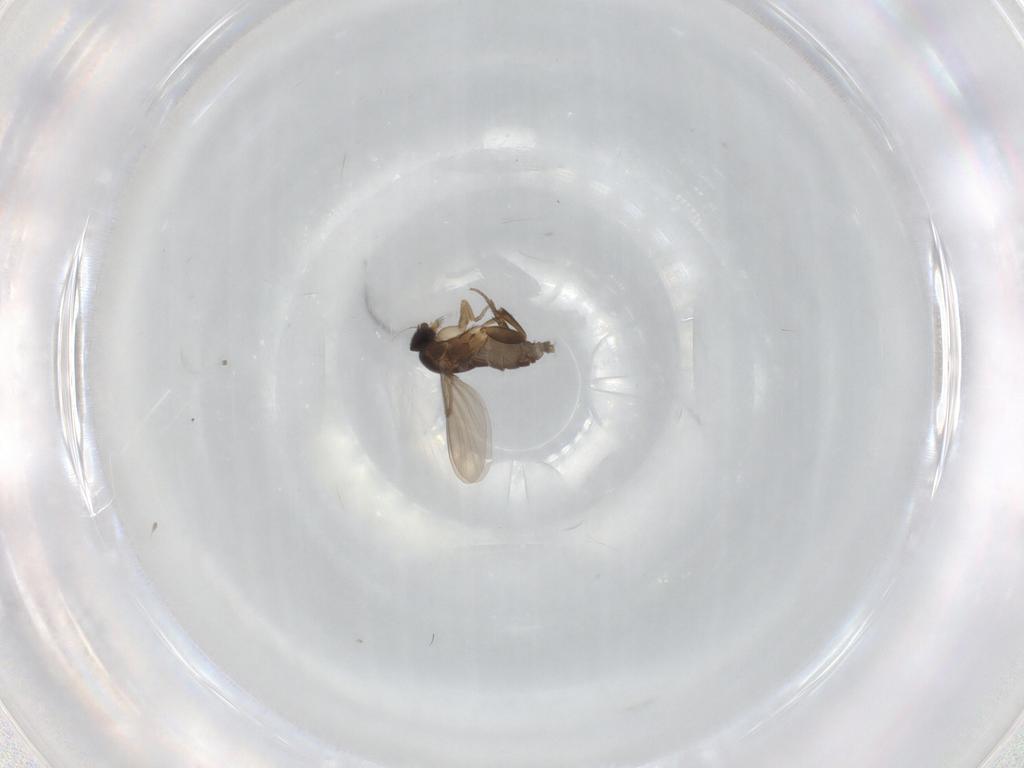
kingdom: Animalia
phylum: Arthropoda
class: Insecta
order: Diptera
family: Phoridae
